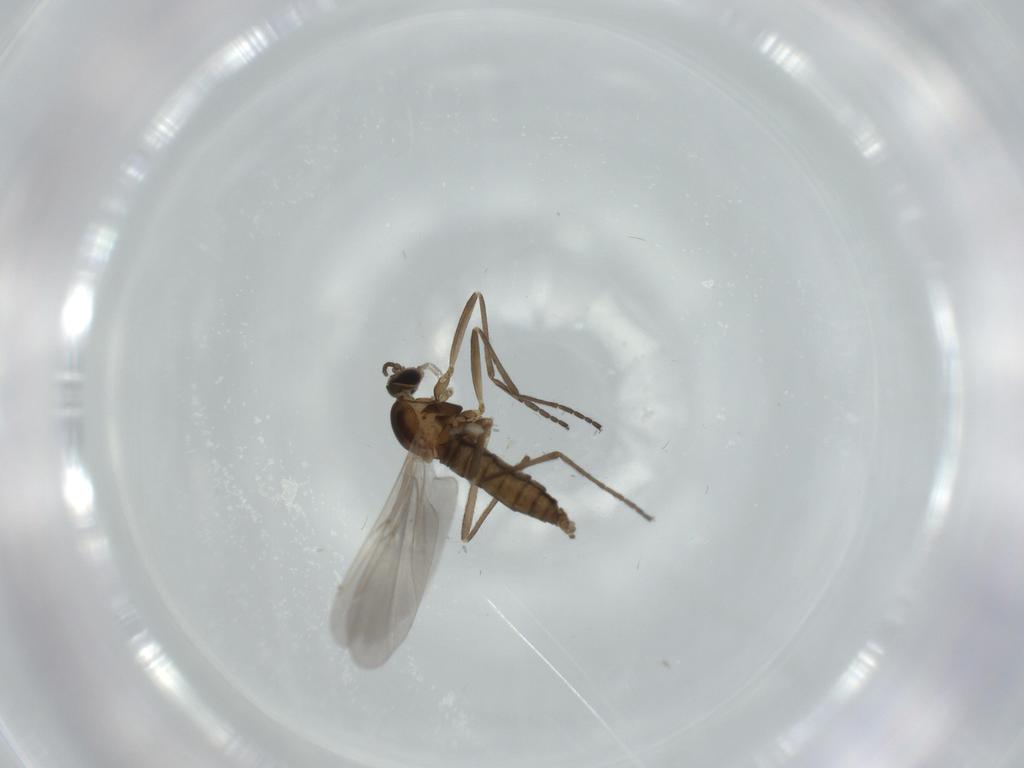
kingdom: Animalia
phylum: Arthropoda
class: Insecta
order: Diptera
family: Cecidomyiidae
